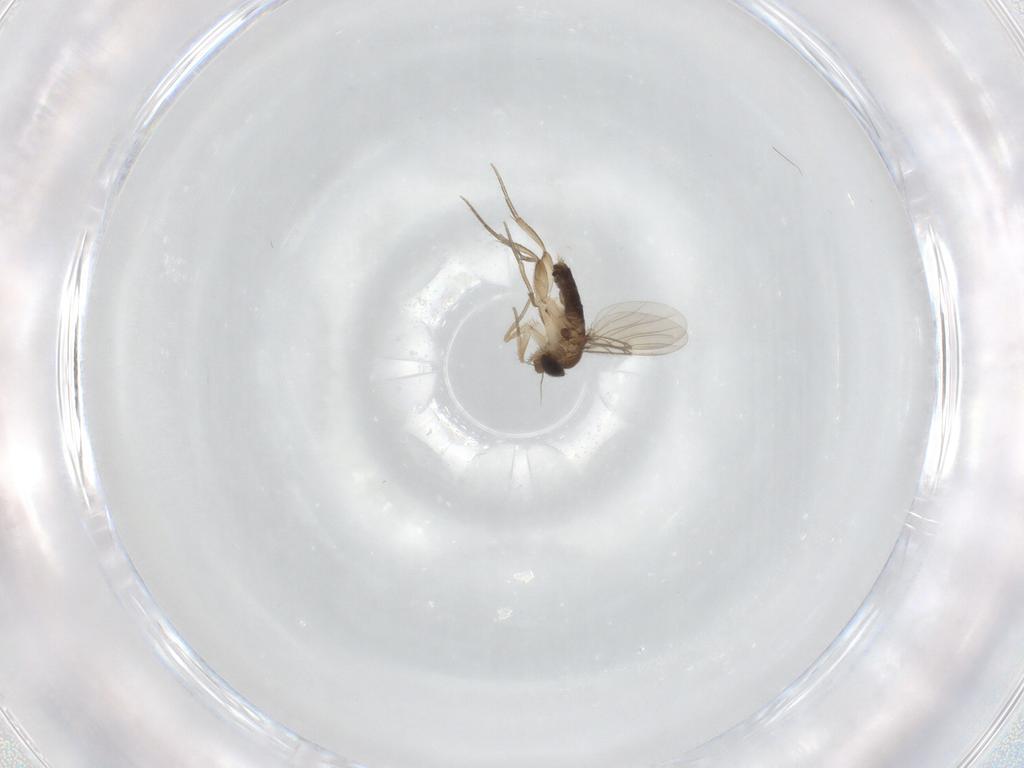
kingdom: Animalia
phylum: Arthropoda
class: Insecta
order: Diptera
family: Phoridae
